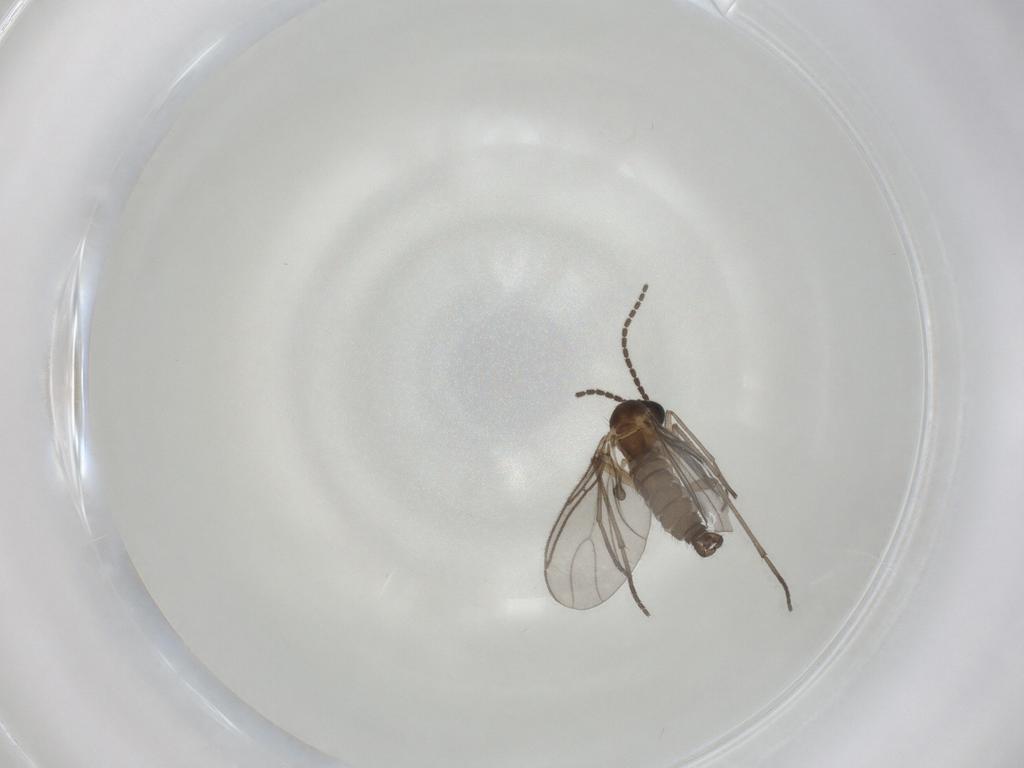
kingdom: Animalia
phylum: Arthropoda
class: Insecta
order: Diptera
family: Sciaridae
